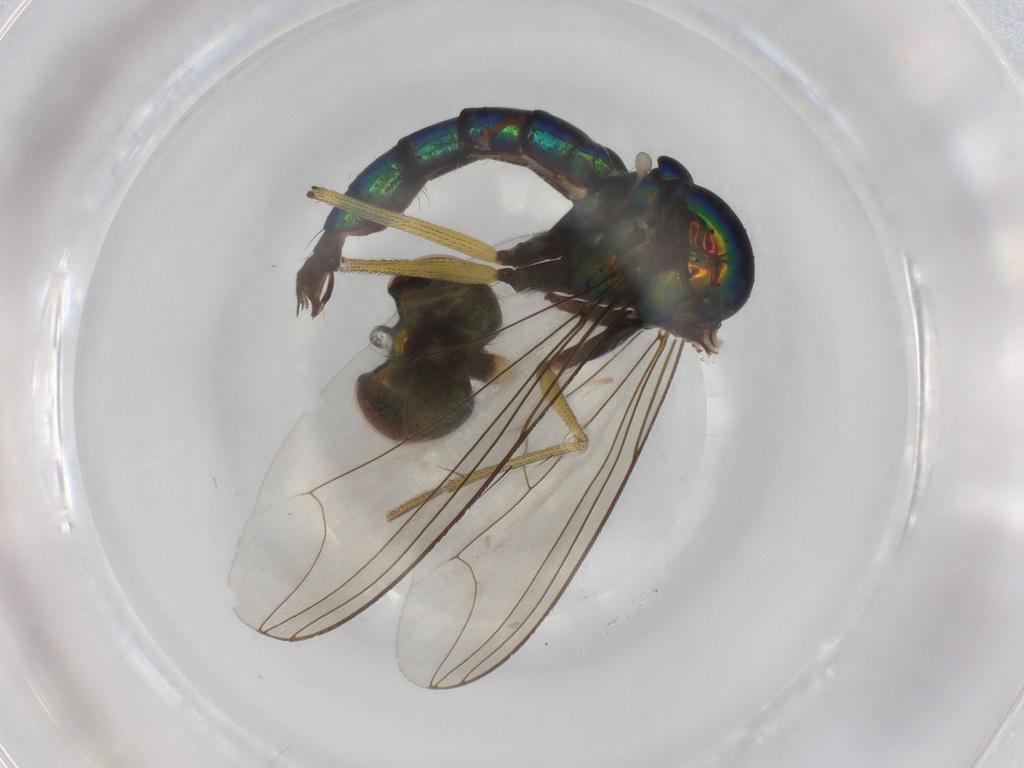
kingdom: Animalia
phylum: Arthropoda
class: Insecta
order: Diptera
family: Dolichopodidae
